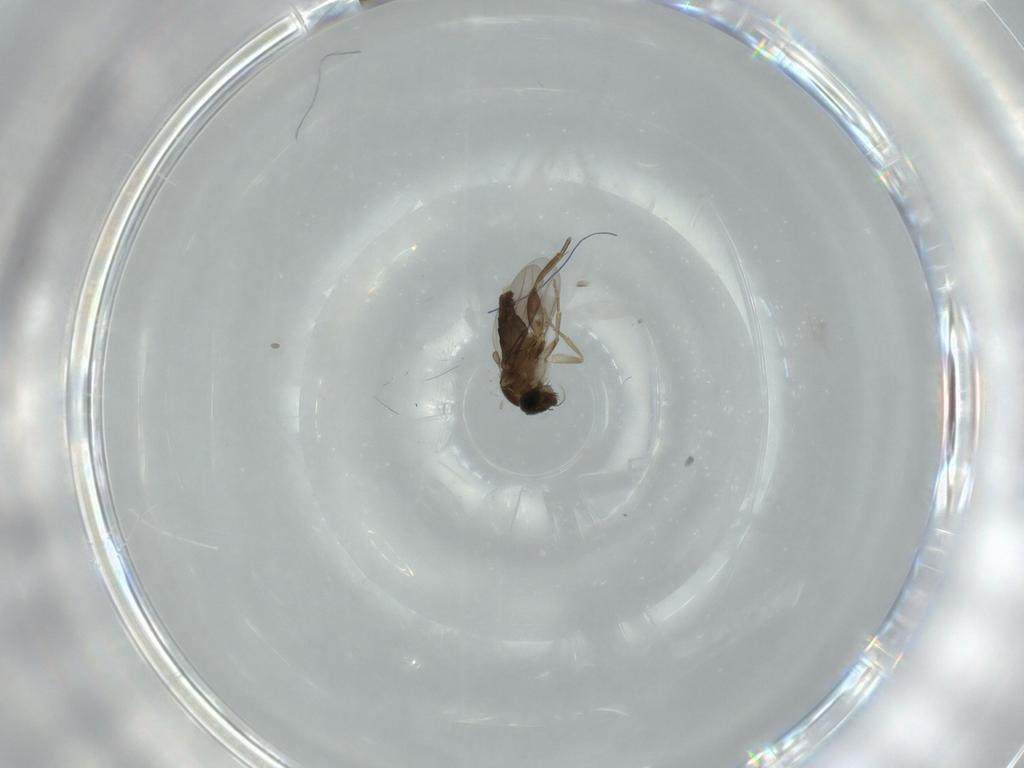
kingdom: Animalia
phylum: Arthropoda
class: Insecta
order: Diptera
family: Phoridae
